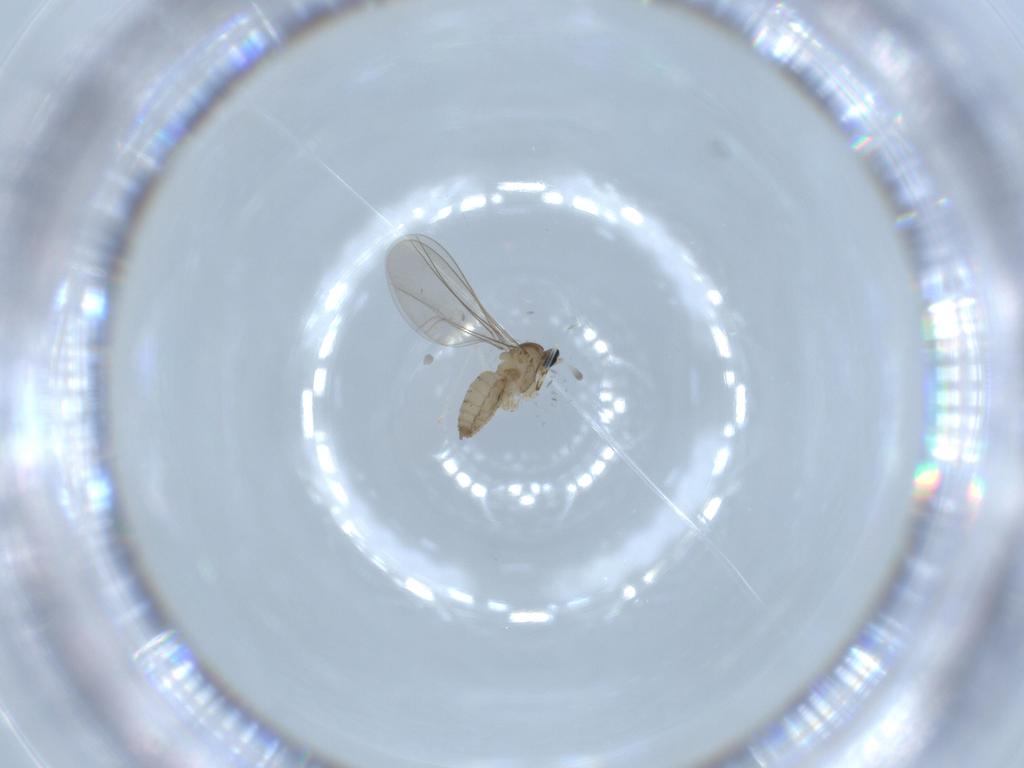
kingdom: Animalia
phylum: Arthropoda
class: Insecta
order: Diptera
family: Cecidomyiidae
